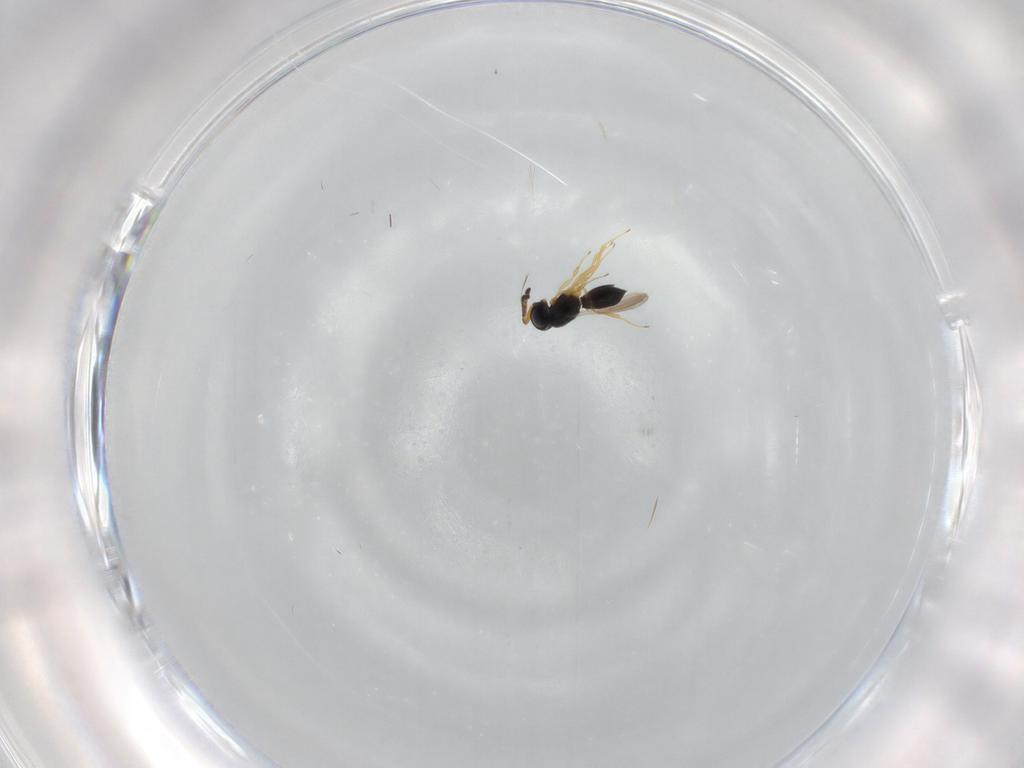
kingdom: Animalia
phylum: Arthropoda
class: Insecta
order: Hymenoptera
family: Scelionidae
